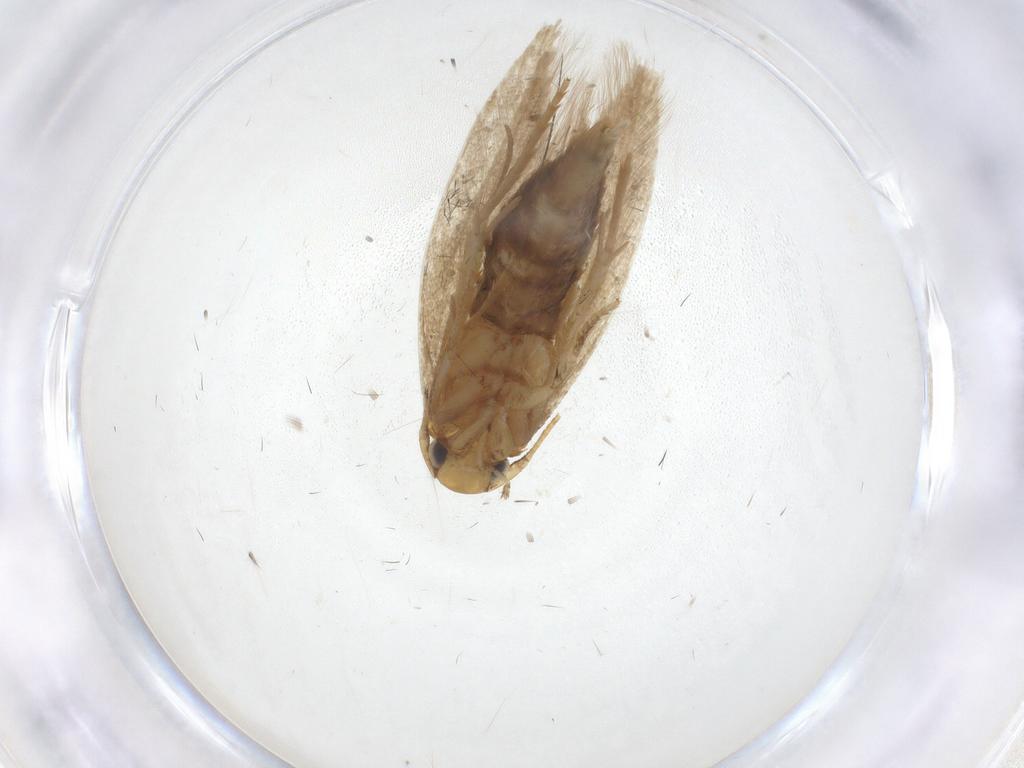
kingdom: Animalia
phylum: Arthropoda
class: Insecta
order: Lepidoptera
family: Tineidae
